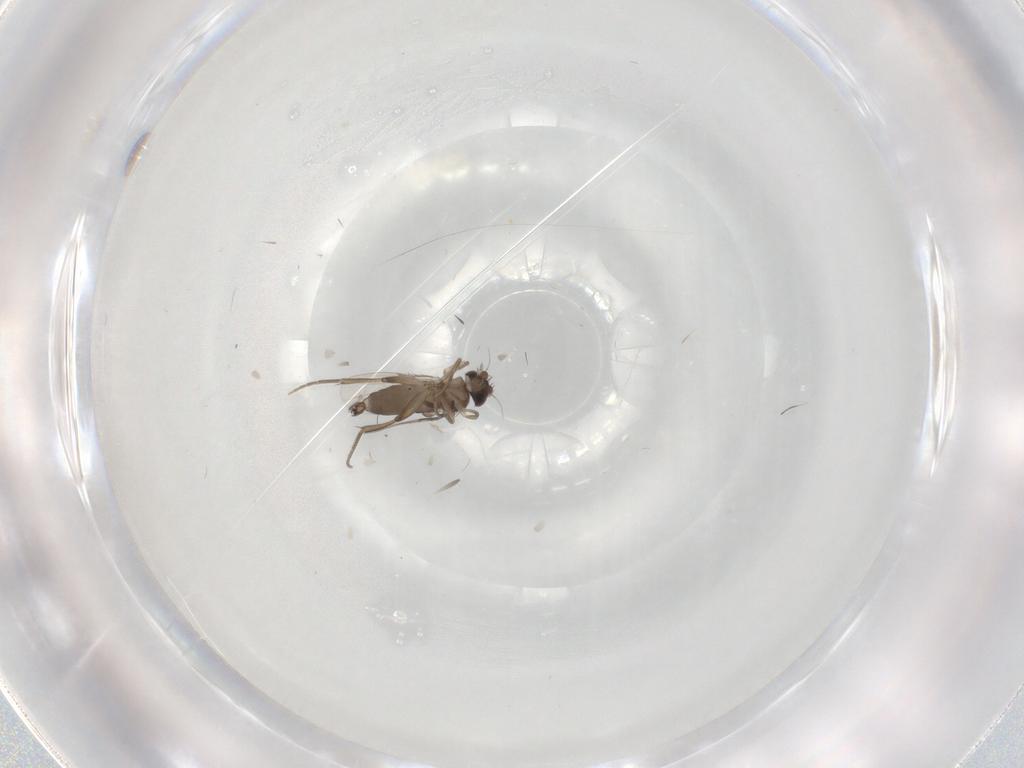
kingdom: Animalia
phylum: Arthropoda
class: Insecta
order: Diptera
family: Phoridae
